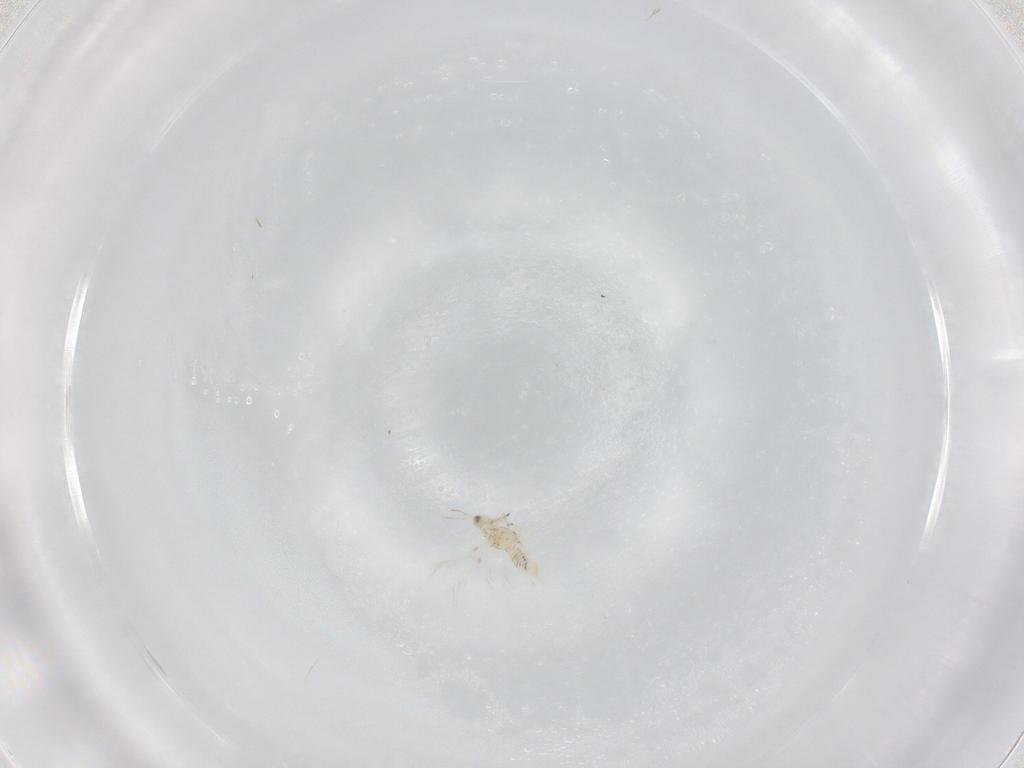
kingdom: Animalia
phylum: Arthropoda
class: Insecta
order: Thysanoptera
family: Thripidae
